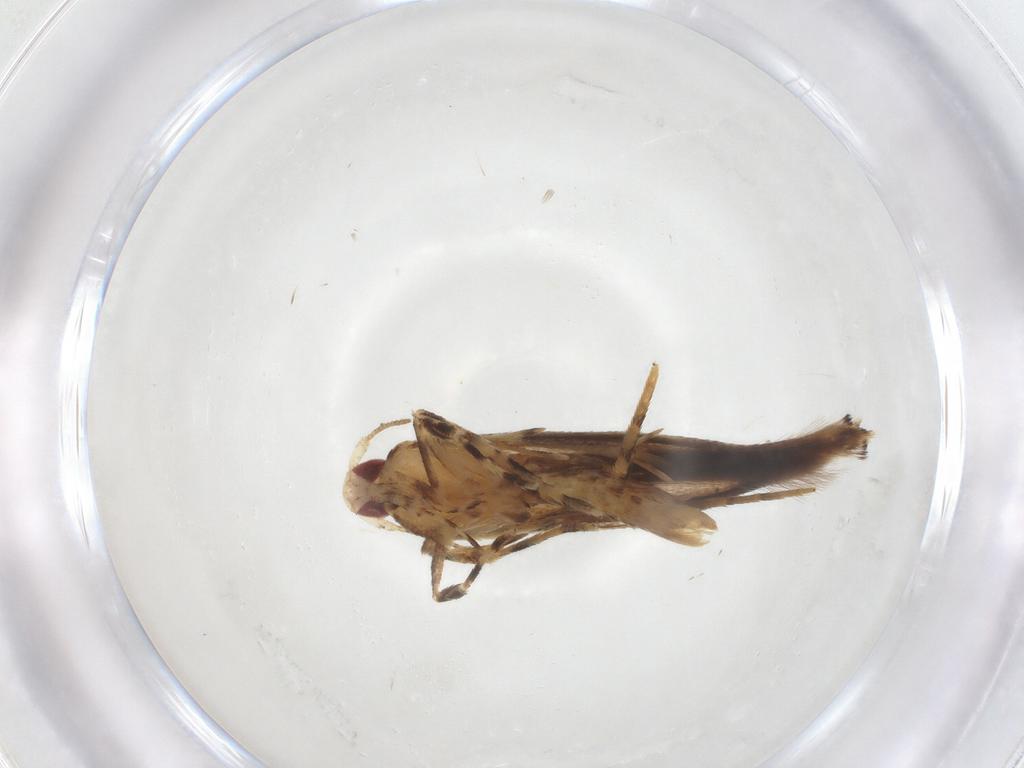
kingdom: Animalia
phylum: Arthropoda
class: Insecta
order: Lepidoptera
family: Cosmopterigidae
